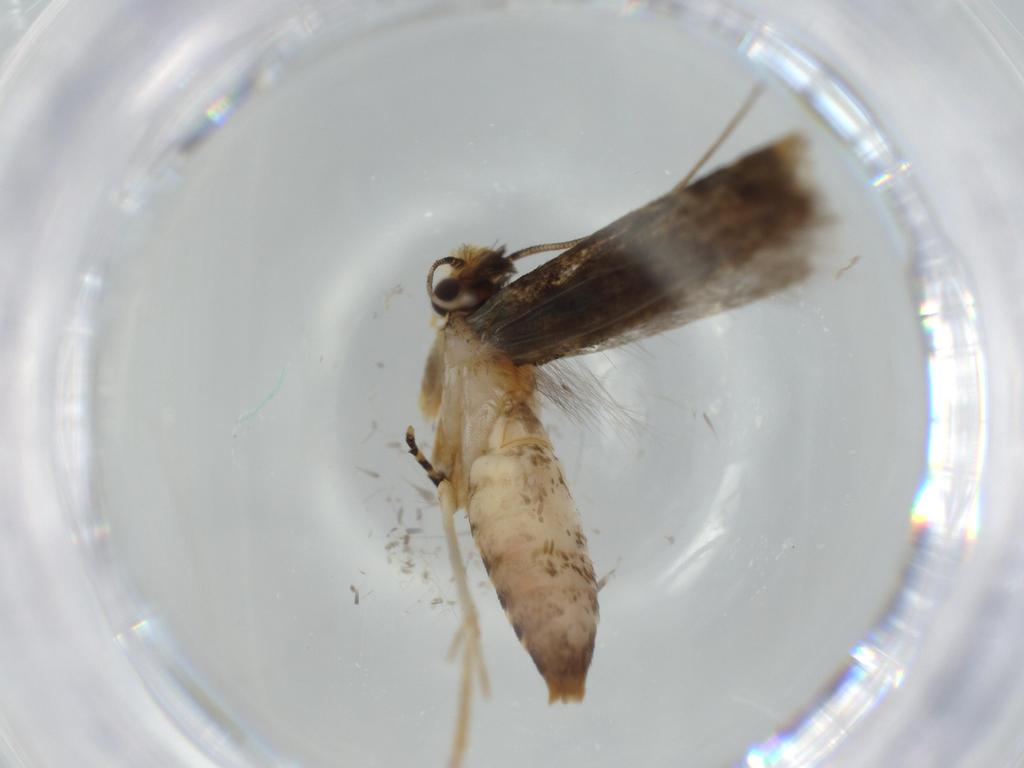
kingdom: Animalia
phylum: Arthropoda
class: Insecta
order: Lepidoptera
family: Tineidae
